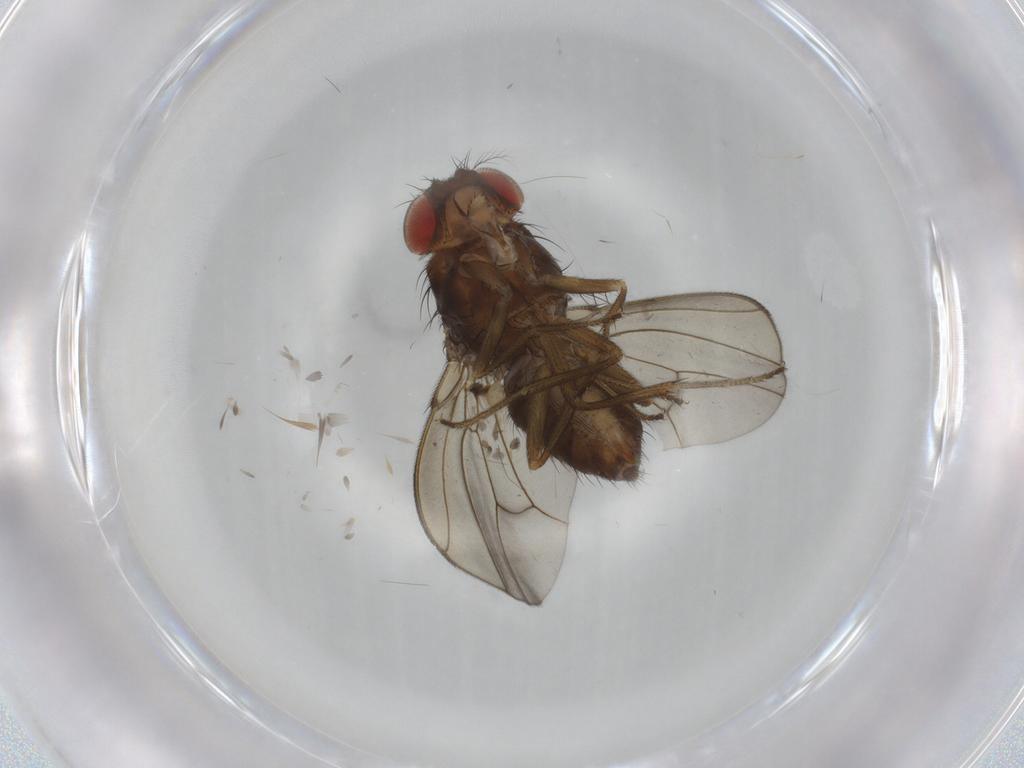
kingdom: Animalia
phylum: Arthropoda
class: Insecta
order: Diptera
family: Drosophilidae
